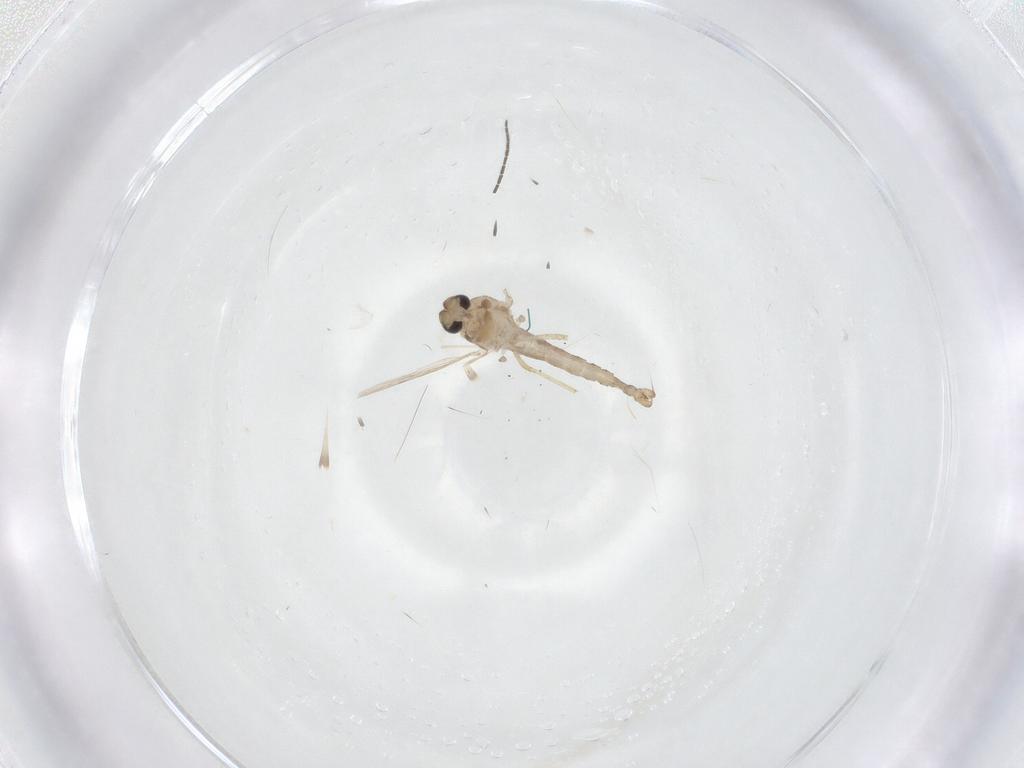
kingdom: Animalia
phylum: Arthropoda
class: Insecta
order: Diptera
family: Ceratopogonidae
